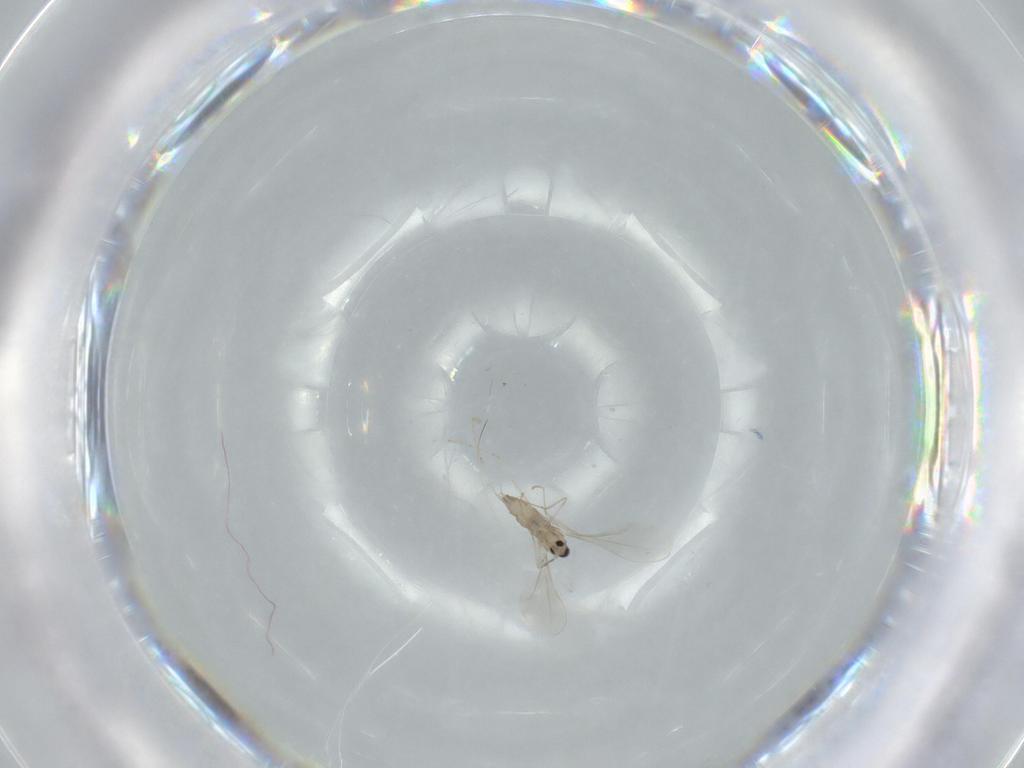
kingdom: Animalia
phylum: Arthropoda
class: Insecta
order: Diptera
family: Cecidomyiidae
